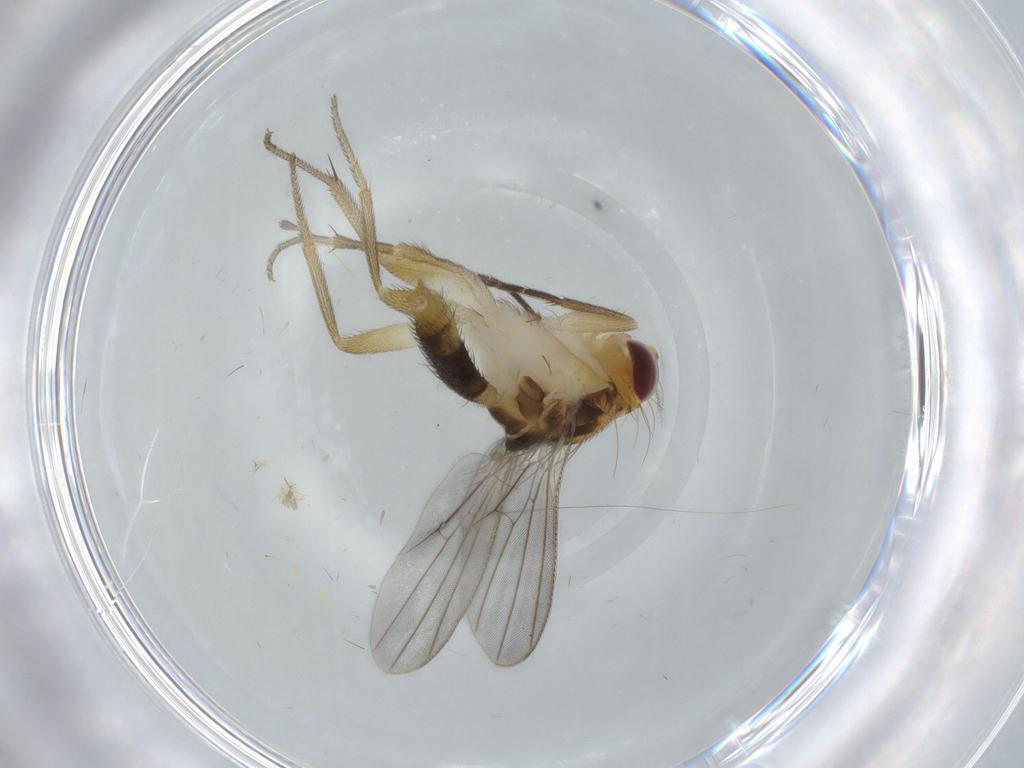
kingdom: Animalia
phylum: Arthropoda
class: Insecta
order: Diptera
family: Clusiidae
